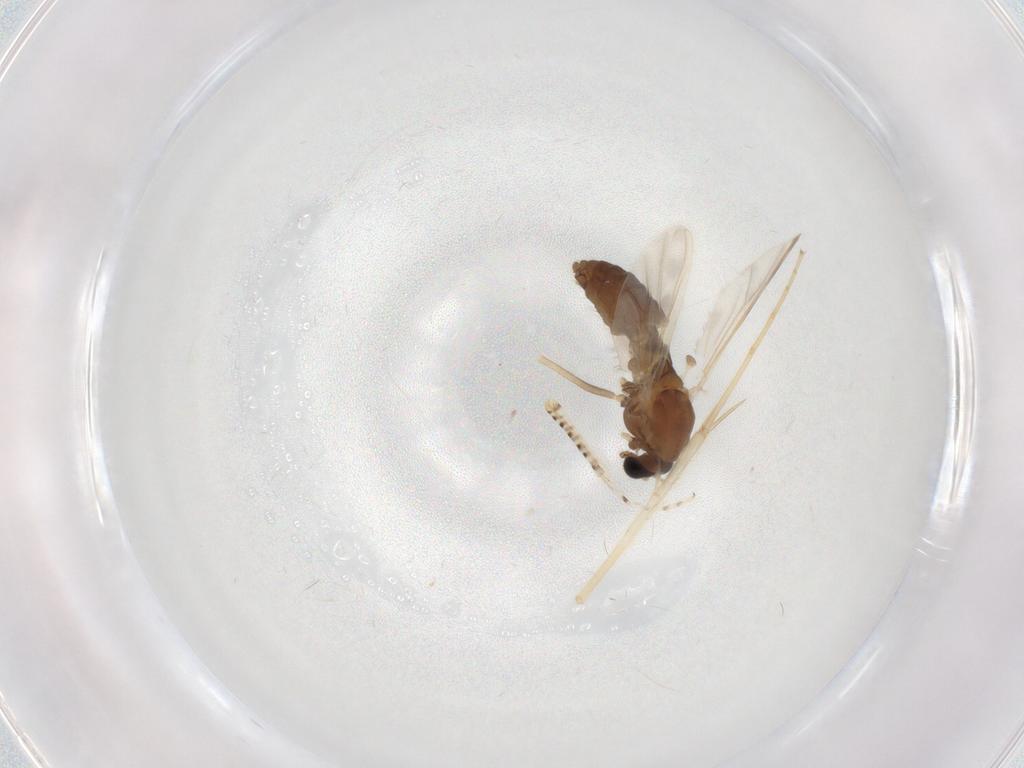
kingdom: Animalia
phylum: Arthropoda
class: Insecta
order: Diptera
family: Chironomidae
